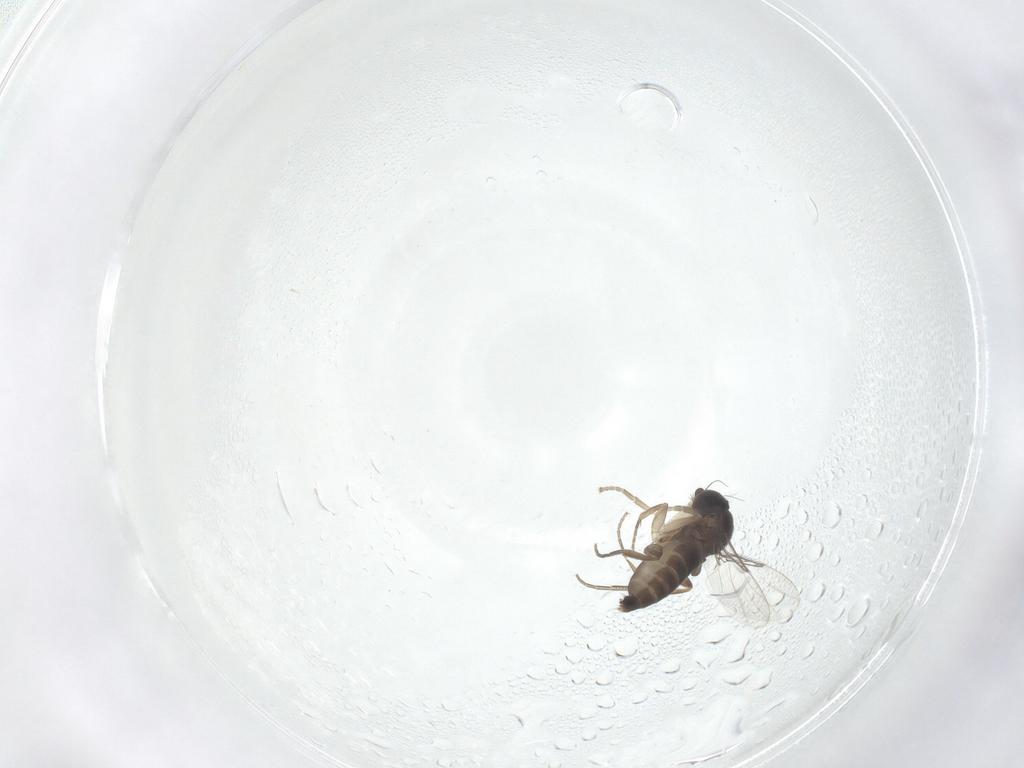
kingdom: Animalia
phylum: Arthropoda
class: Insecta
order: Diptera
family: Phoridae
